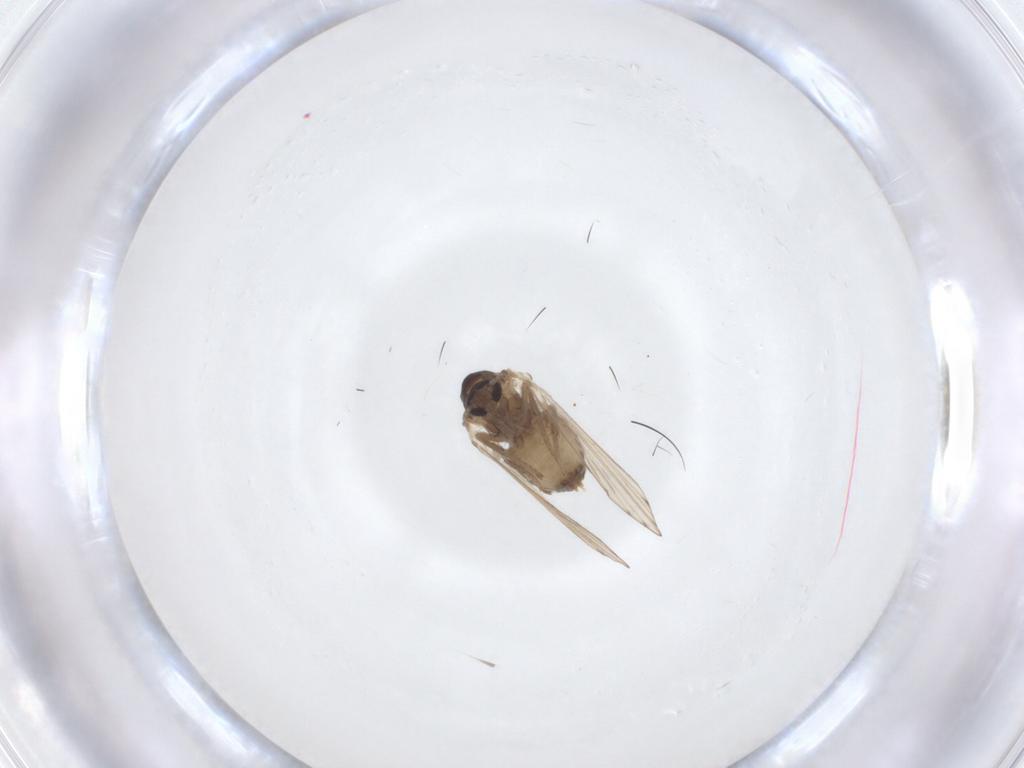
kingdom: Animalia
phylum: Arthropoda
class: Insecta
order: Diptera
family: Psychodidae
